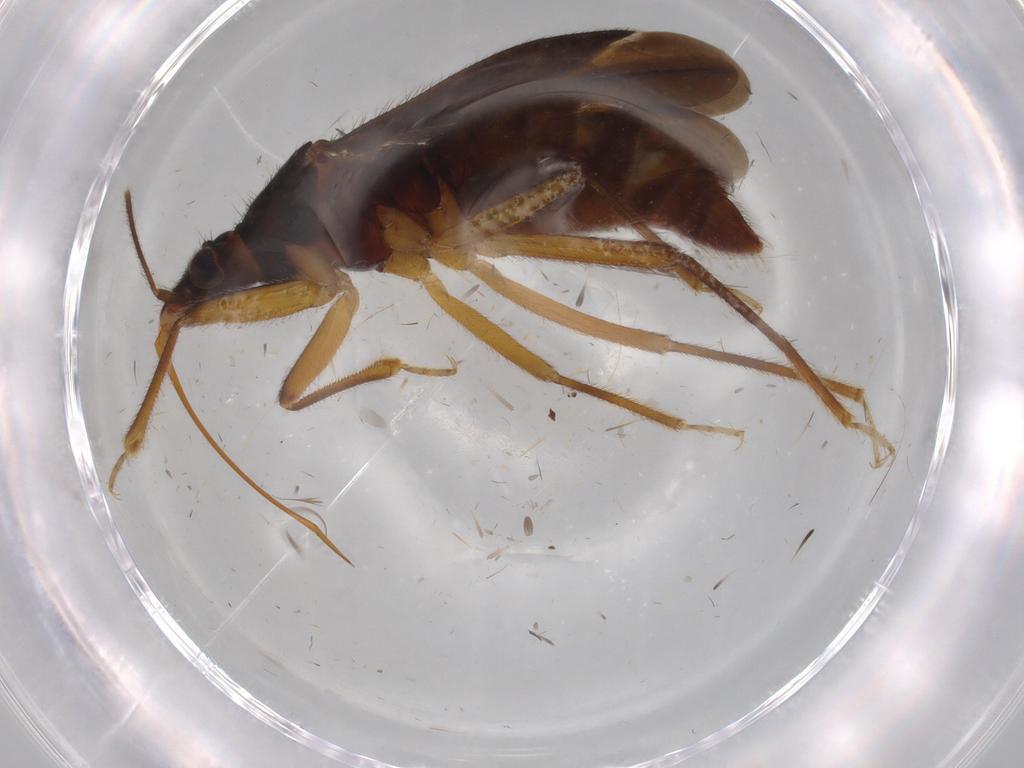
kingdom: Animalia
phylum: Arthropoda
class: Insecta
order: Hemiptera
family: Anthocoridae
